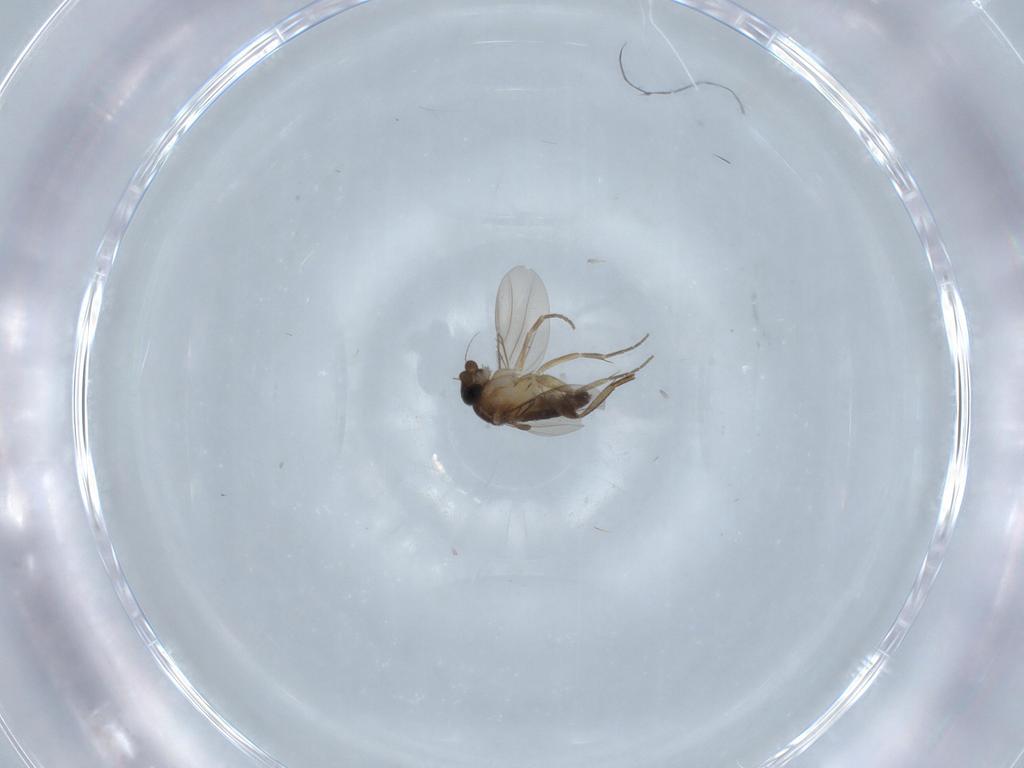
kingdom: Animalia
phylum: Arthropoda
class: Insecta
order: Diptera
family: Phoridae
